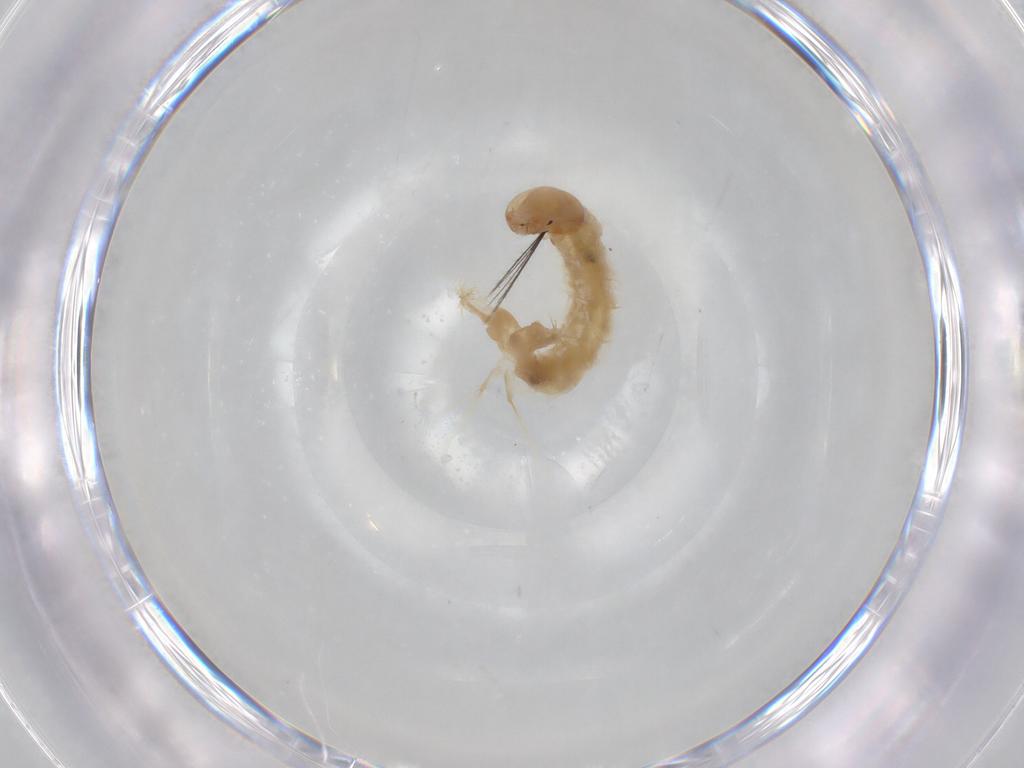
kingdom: Animalia
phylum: Arthropoda
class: Insecta
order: Diptera
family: Chironomidae
